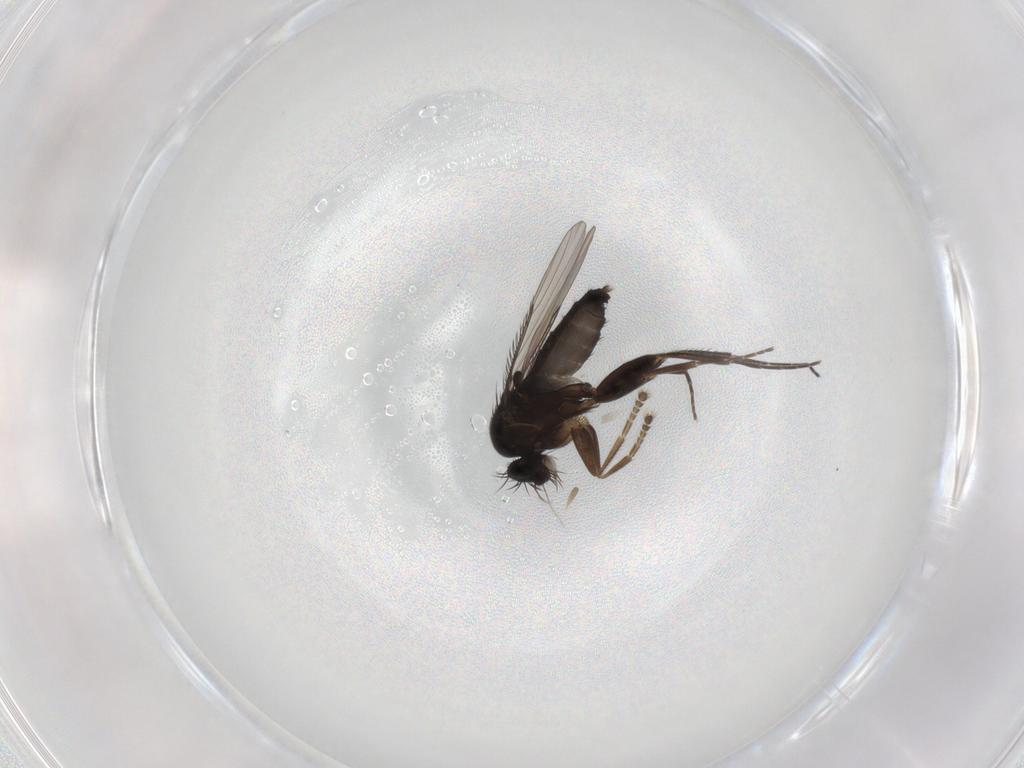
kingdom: Animalia
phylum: Arthropoda
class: Insecta
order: Diptera
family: Phoridae
